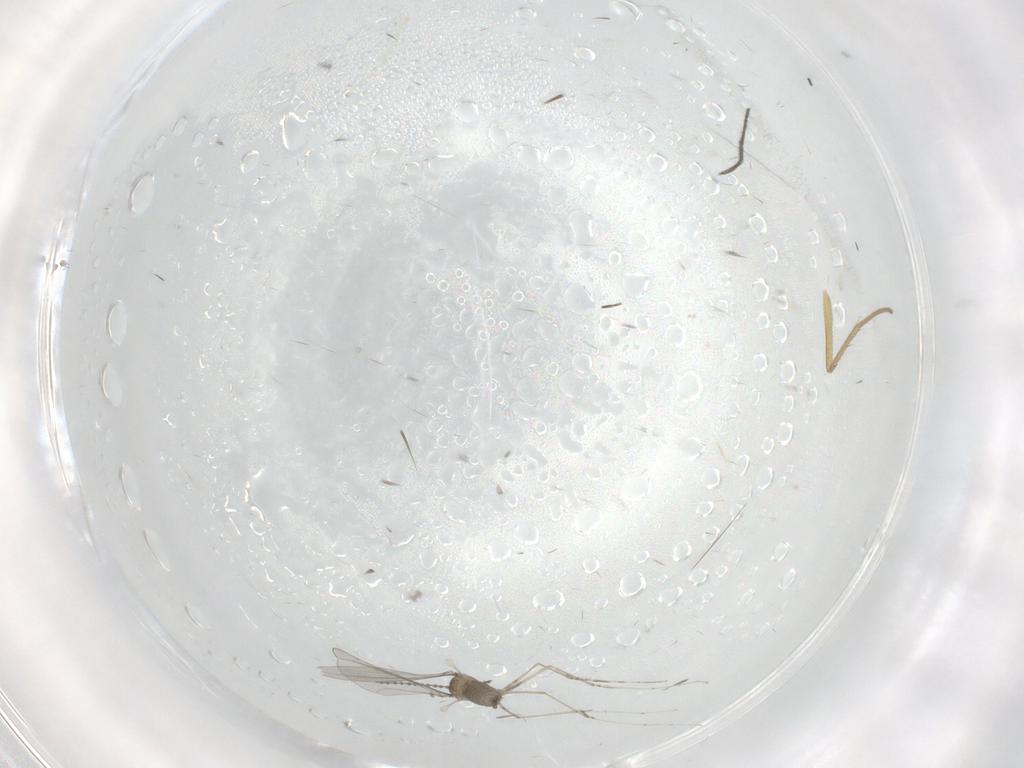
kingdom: Animalia
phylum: Arthropoda
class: Insecta
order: Diptera
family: Cecidomyiidae
